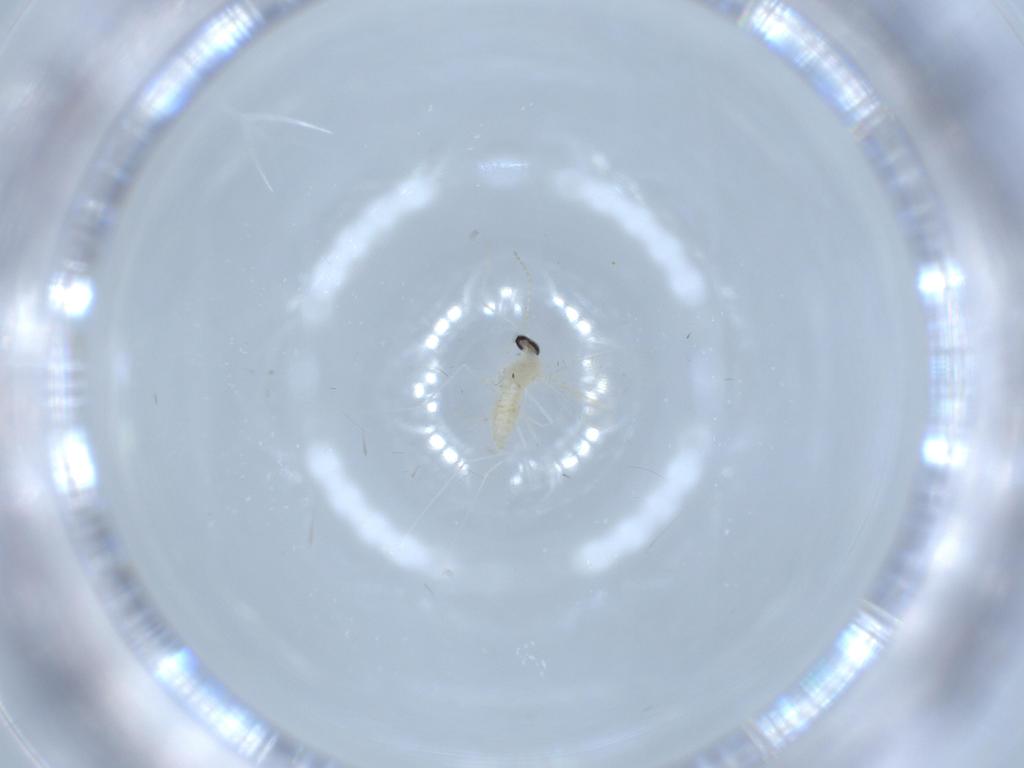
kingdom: Animalia
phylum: Arthropoda
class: Insecta
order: Diptera
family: Cecidomyiidae
